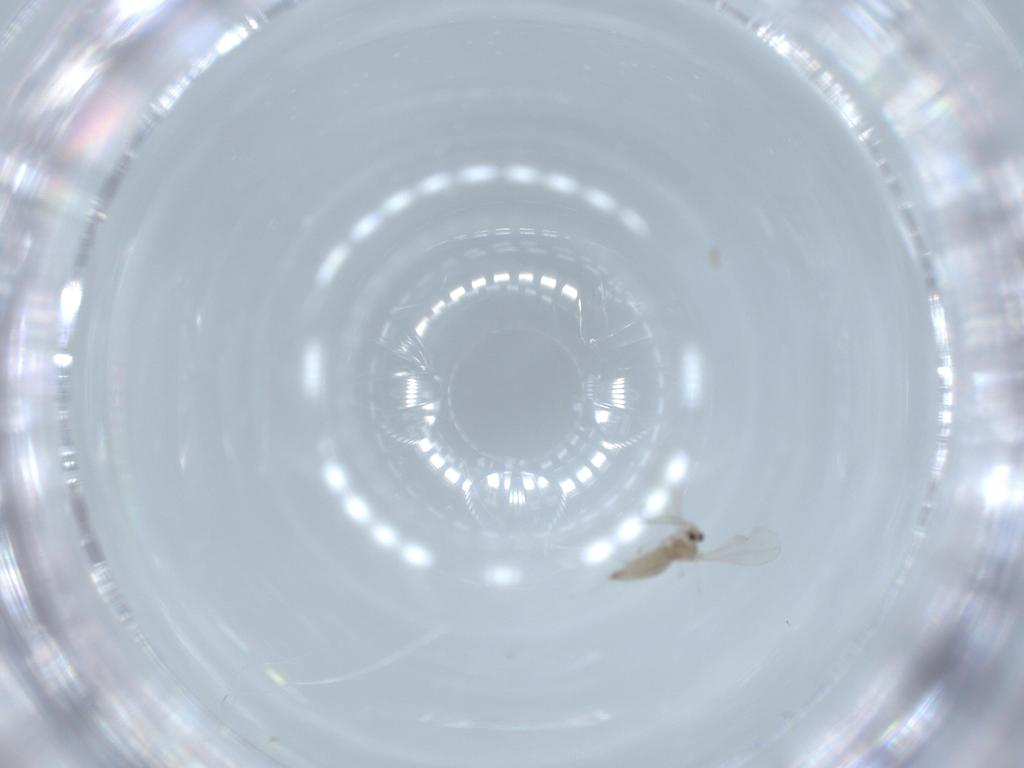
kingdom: Animalia
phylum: Arthropoda
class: Insecta
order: Diptera
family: Cecidomyiidae
